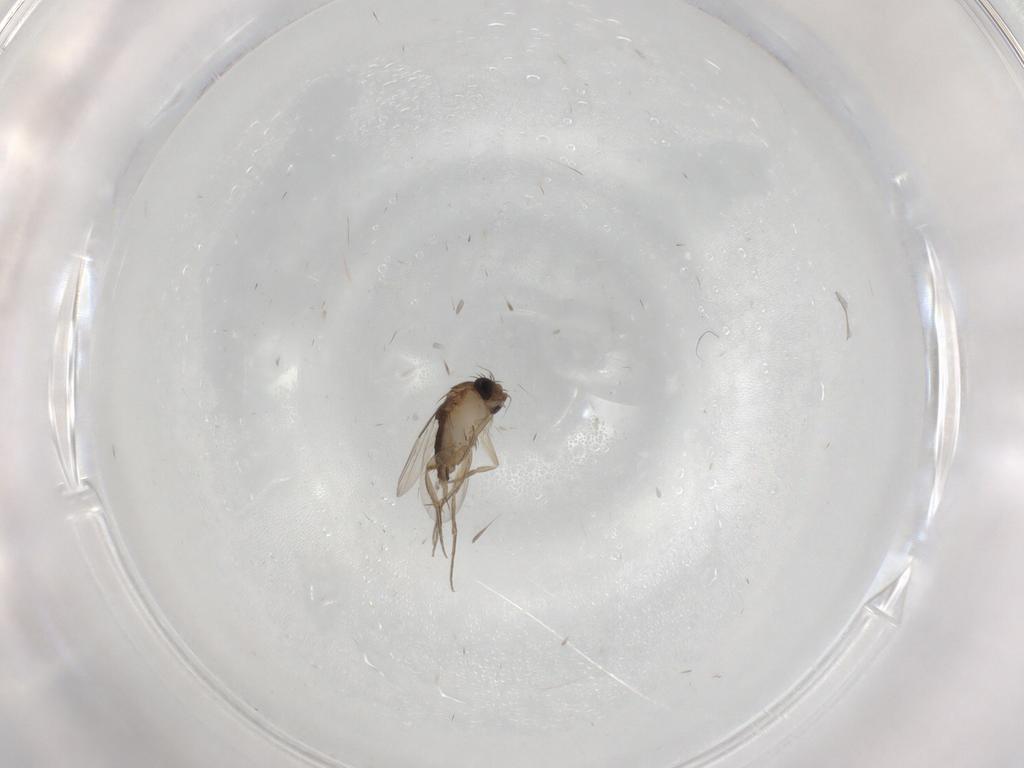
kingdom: Animalia
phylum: Arthropoda
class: Insecta
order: Diptera
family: Phoridae
